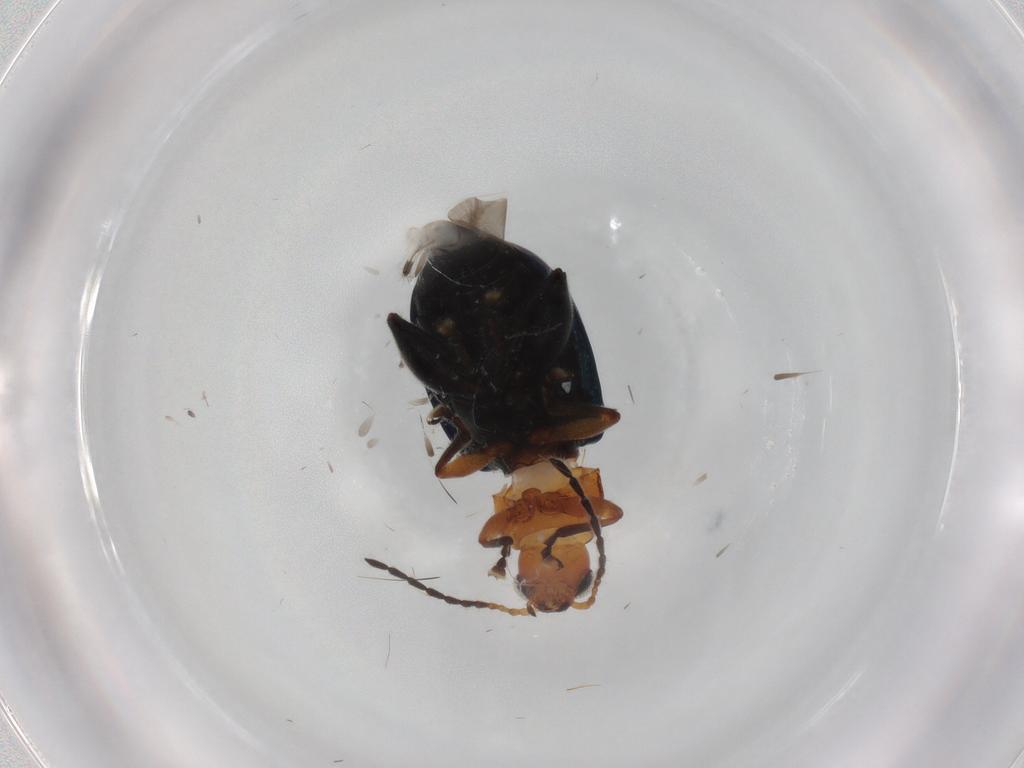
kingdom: Animalia
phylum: Arthropoda
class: Insecta
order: Coleoptera
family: Chrysomelidae
